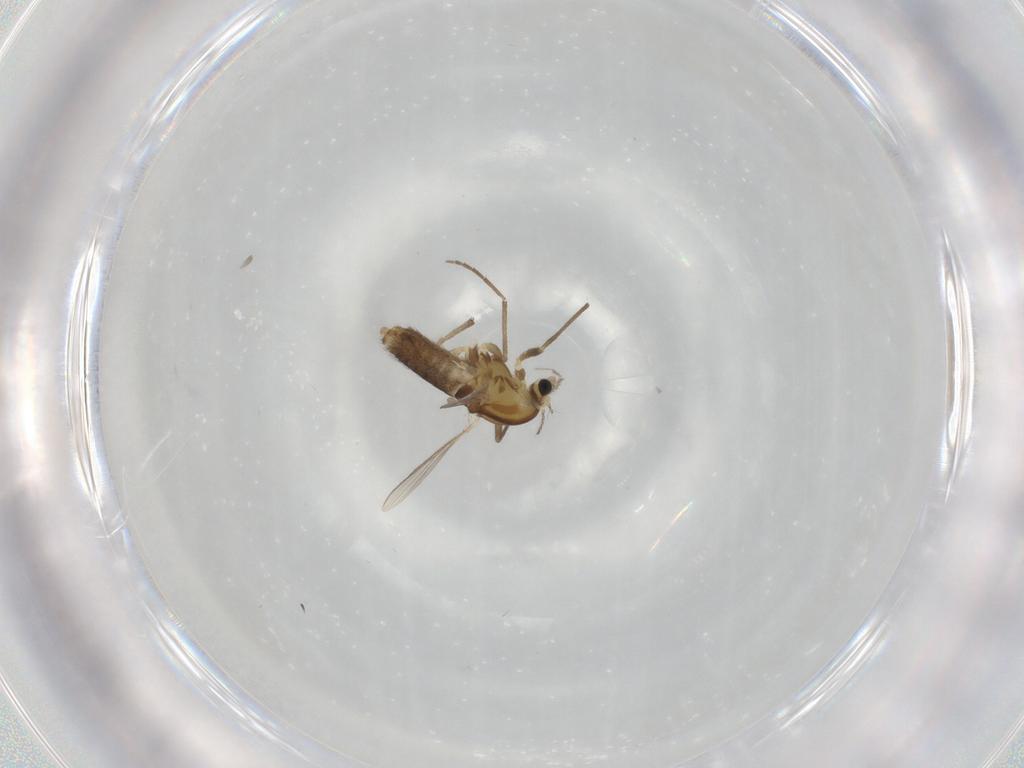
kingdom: Animalia
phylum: Arthropoda
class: Insecta
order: Diptera
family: Chironomidae
